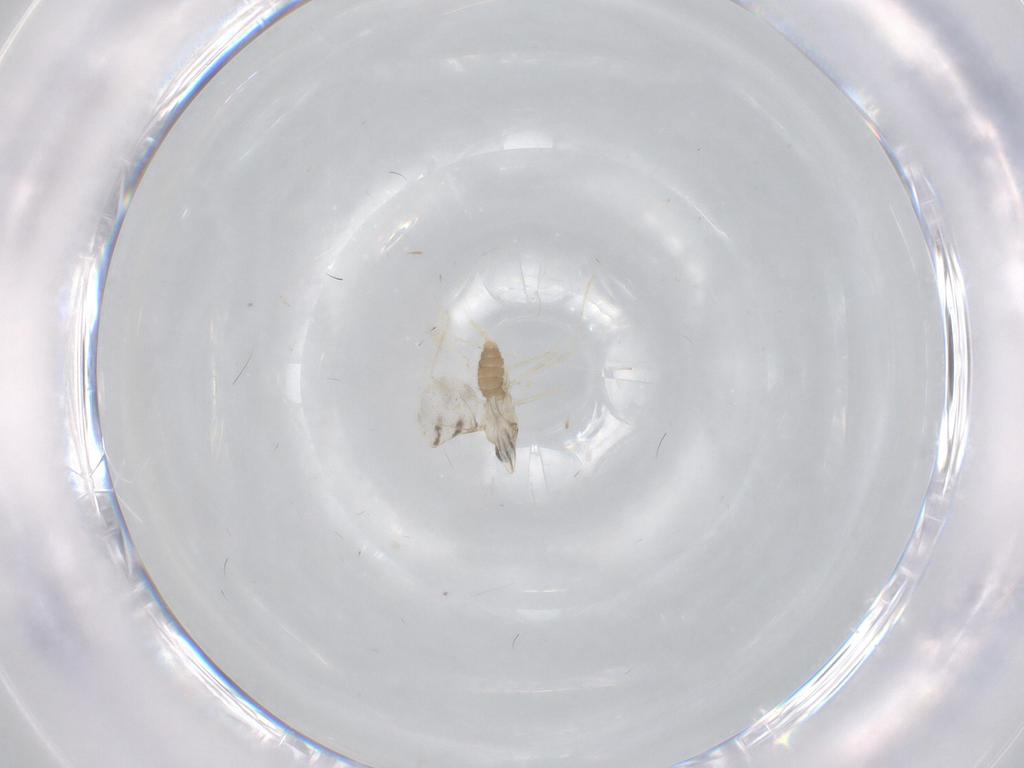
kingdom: Animalia
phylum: Arthropoda
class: Insecta
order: Diptera
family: Cecidomyiidae
